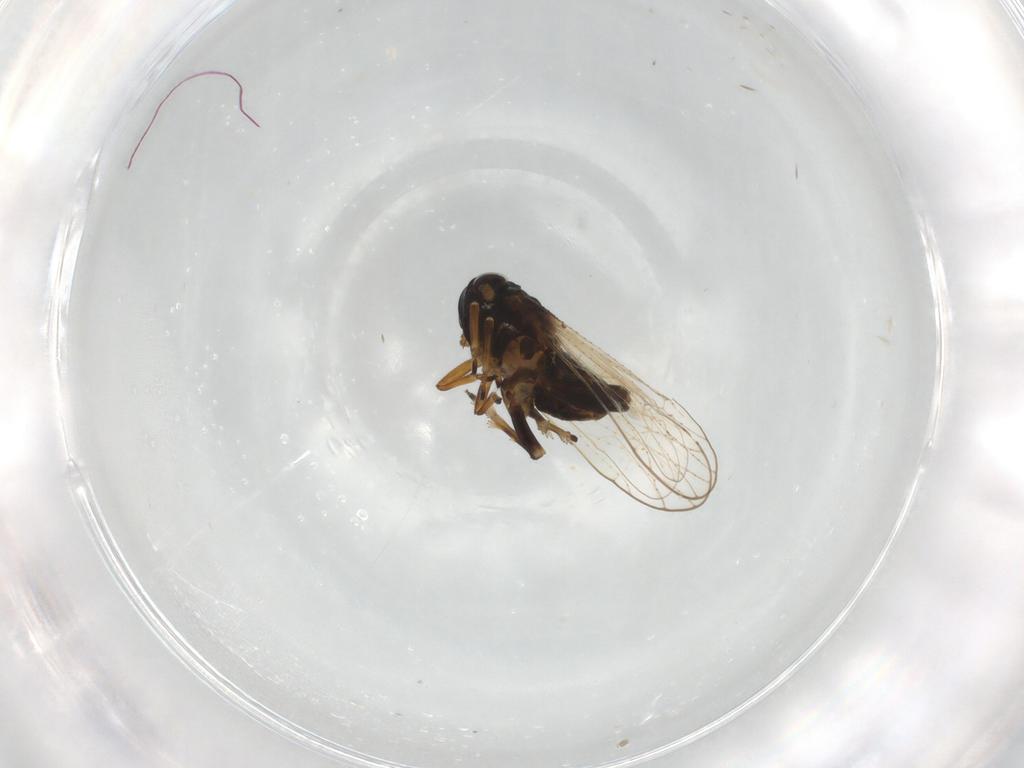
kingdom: Animalia
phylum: Arthropoda
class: Insecta
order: Hemiptera
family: Delphacidae
